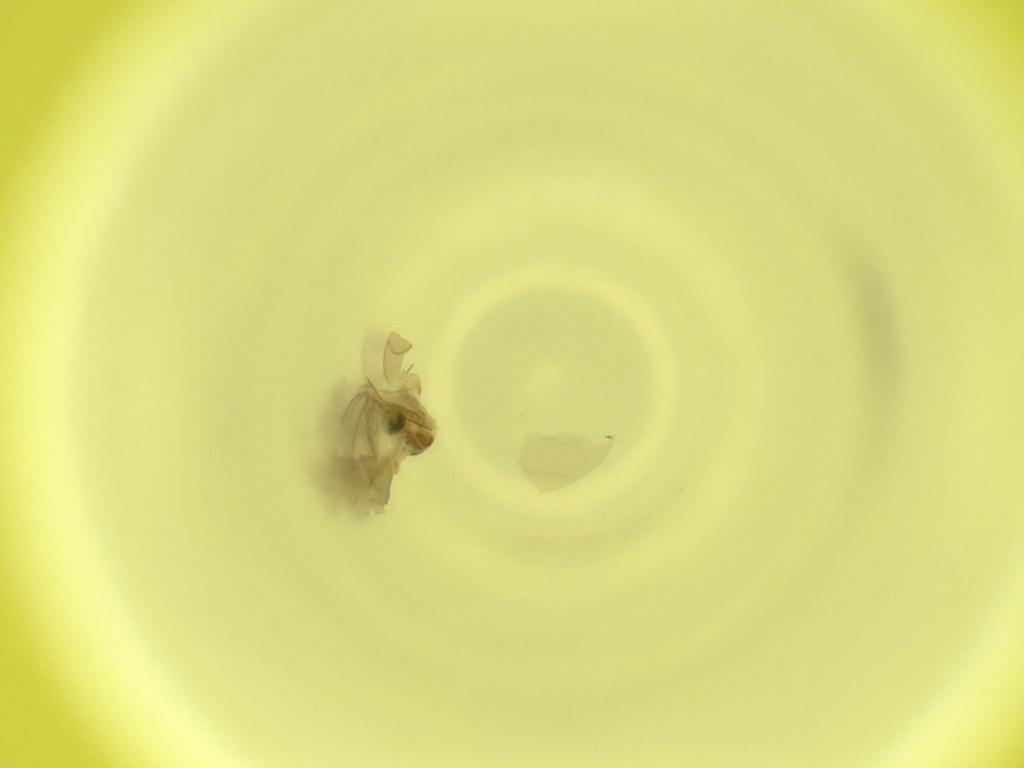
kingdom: Animalia
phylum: Arthropoda
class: Insecta
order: Diptera
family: Cecidomyiidae
